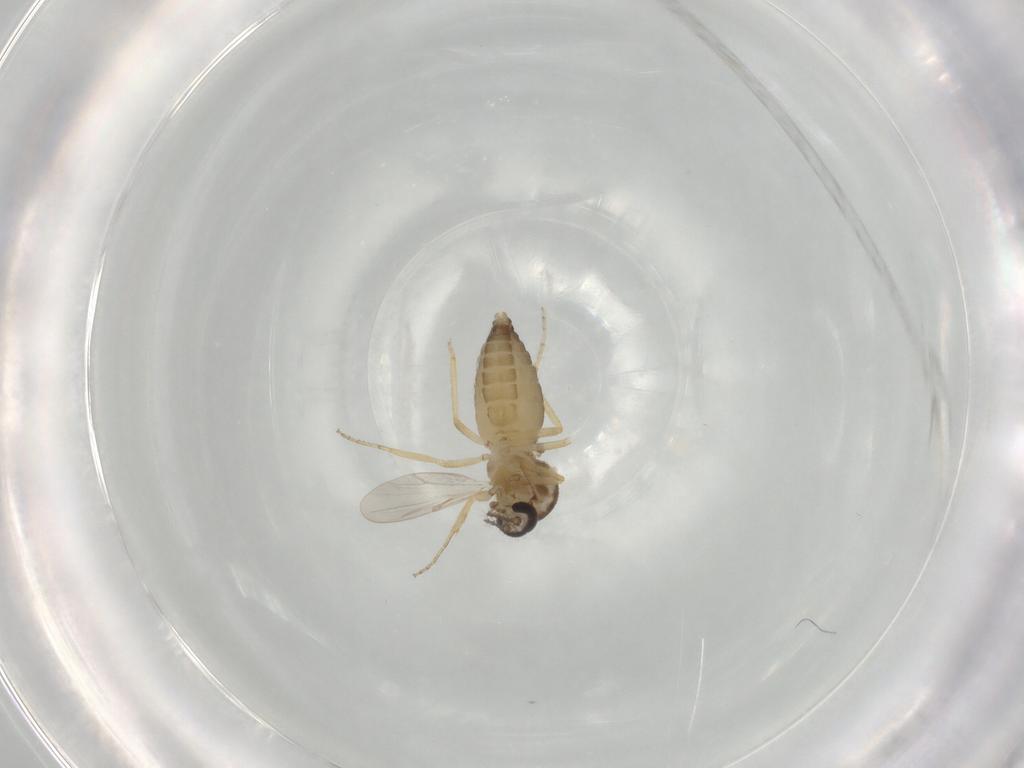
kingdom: Animalia
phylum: Arthropoda
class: Insecta
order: Diptera
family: Ceratopogonidae
